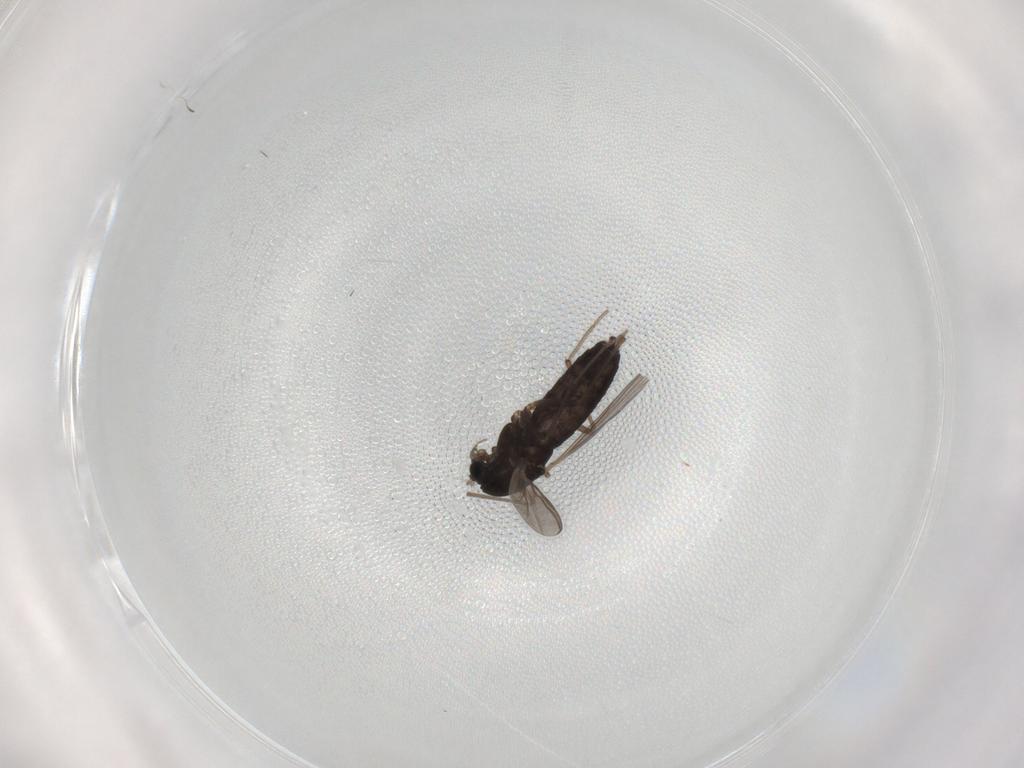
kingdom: Animalia
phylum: Arthropoda
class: Insecta
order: Diptera
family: Chironomidae
